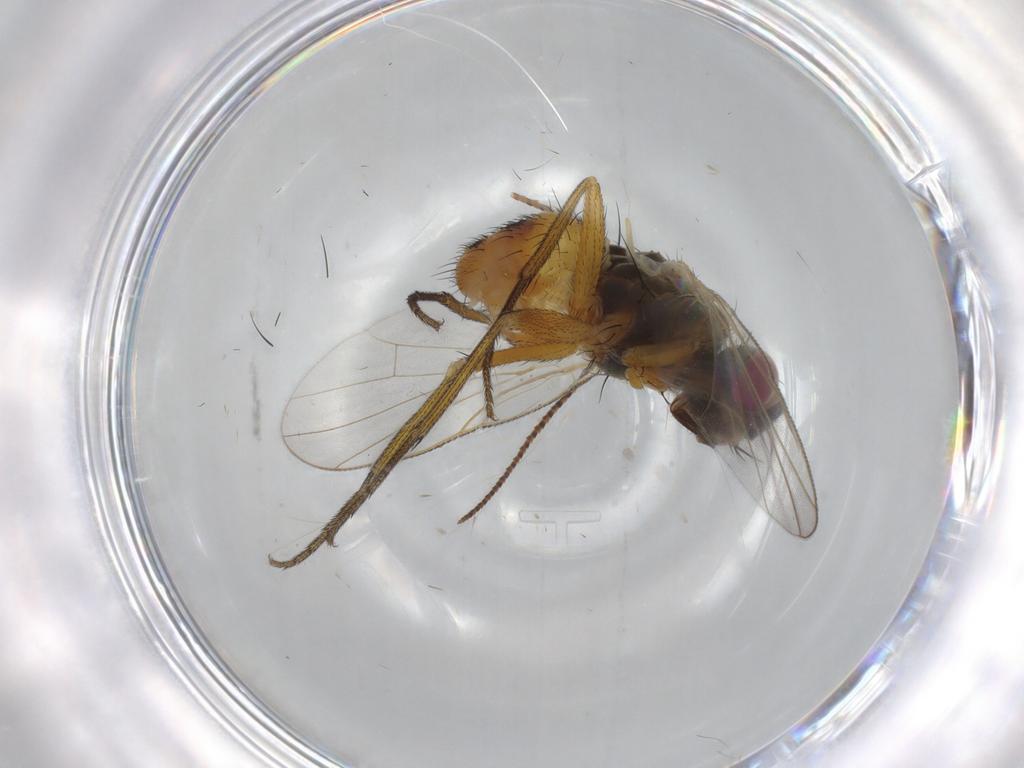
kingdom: Animalia
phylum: Arthropoda
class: Insecta
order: Diptera
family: Muscidae
